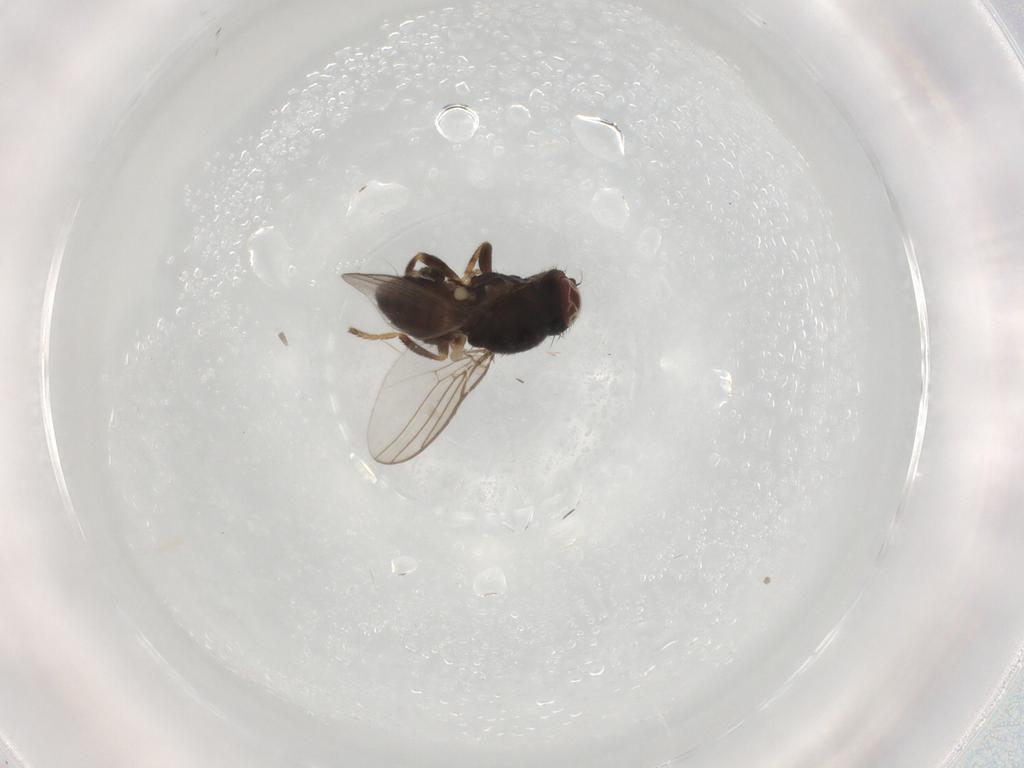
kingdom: Animalia
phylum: Arthropoda
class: Insecta
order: Diptera
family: Chloropidae
